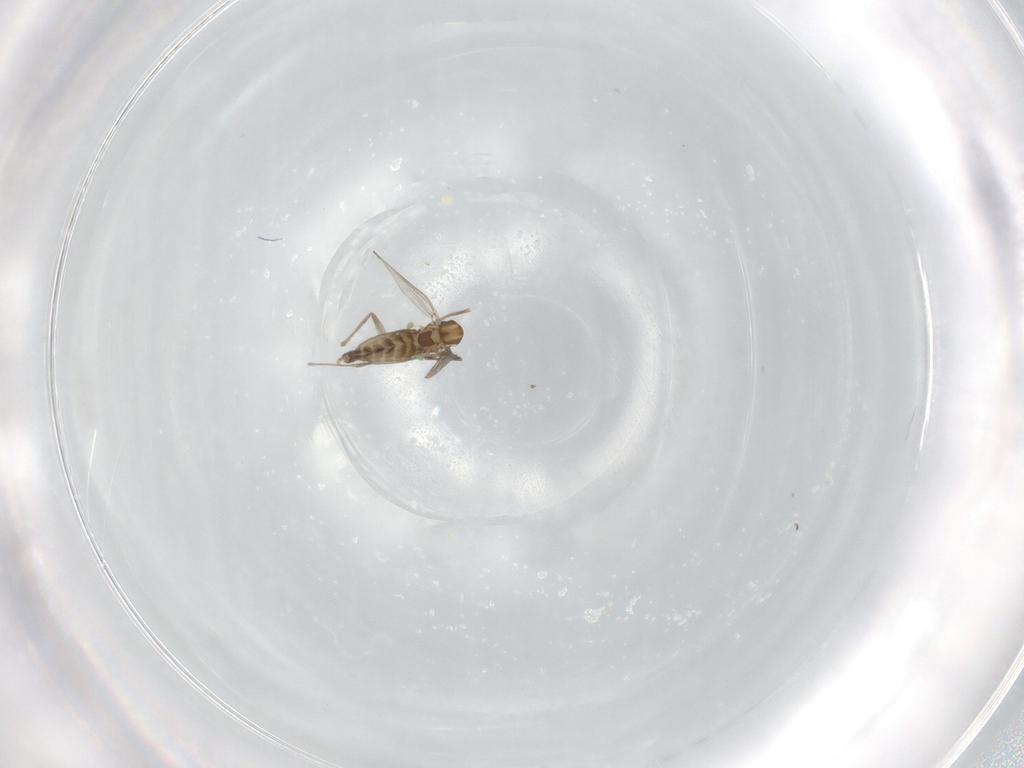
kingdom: Animalia
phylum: Arthropoda
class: Insecta
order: Diptera
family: Chironomidae
